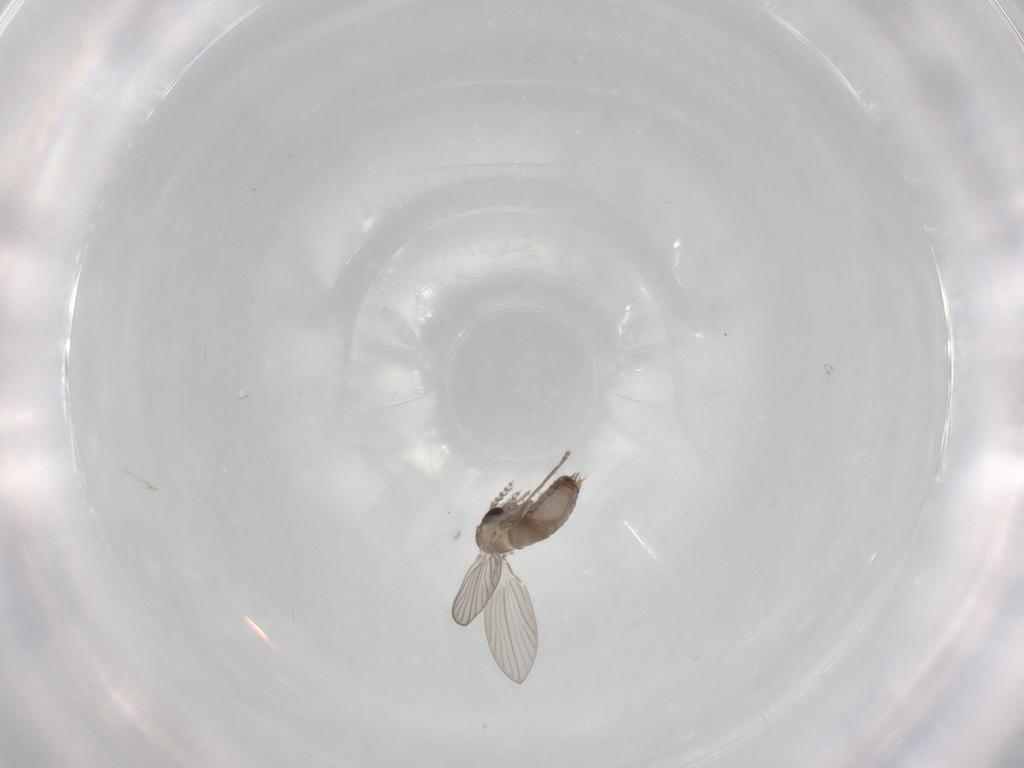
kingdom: Animalia
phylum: Arthropoda
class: Insecta
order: Diptera
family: Psychodidae
